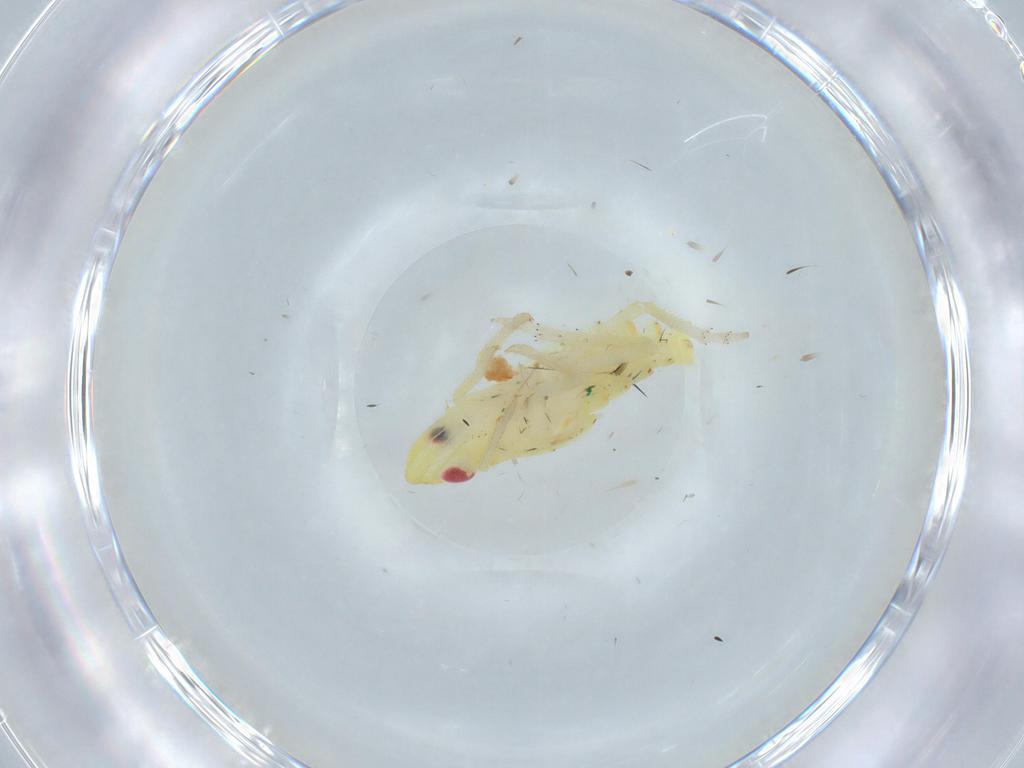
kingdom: Animalia
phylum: Arthropoda
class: Insecta
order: Hemiptera
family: Tropiduchidae
